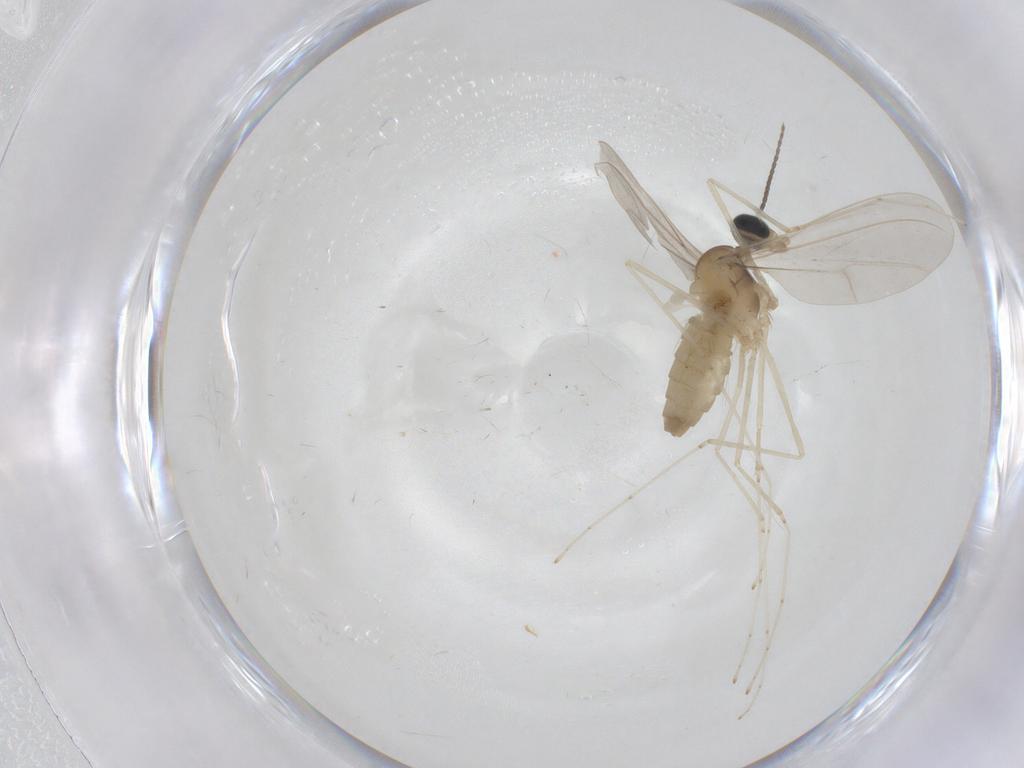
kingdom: Animalia
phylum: Arthropoda
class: Insecta
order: Diptera
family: Cecidomyiidae
